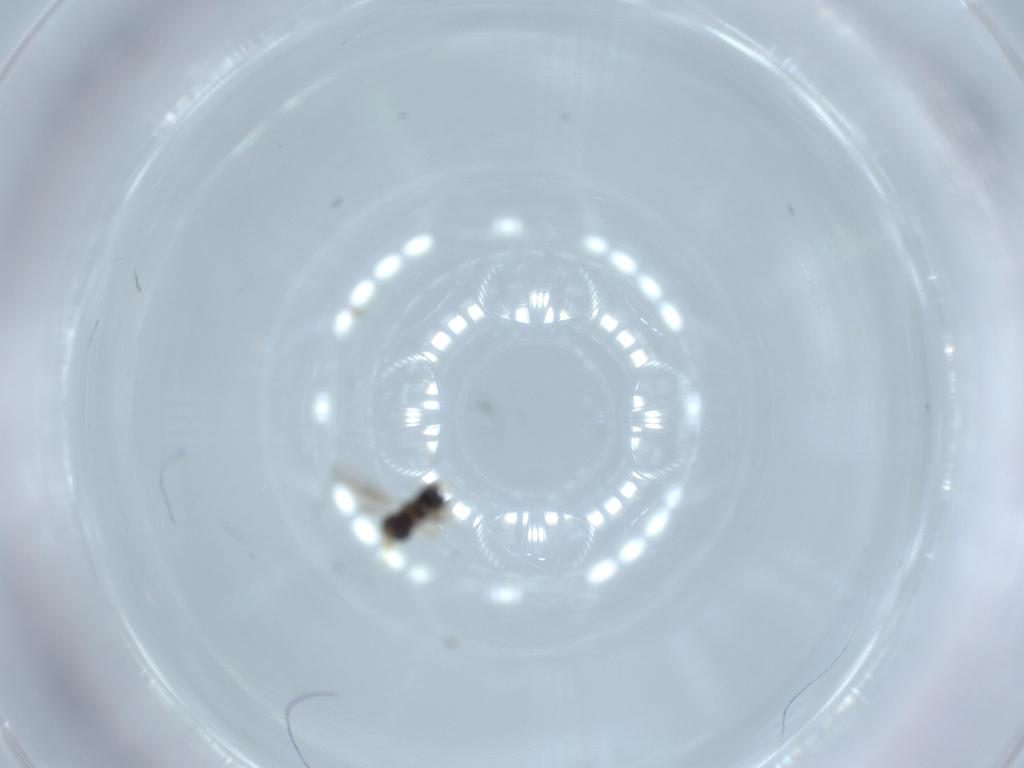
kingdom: Animalia
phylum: Arthropoda
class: Insecta
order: Hymenoptera
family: Aphelinidae
